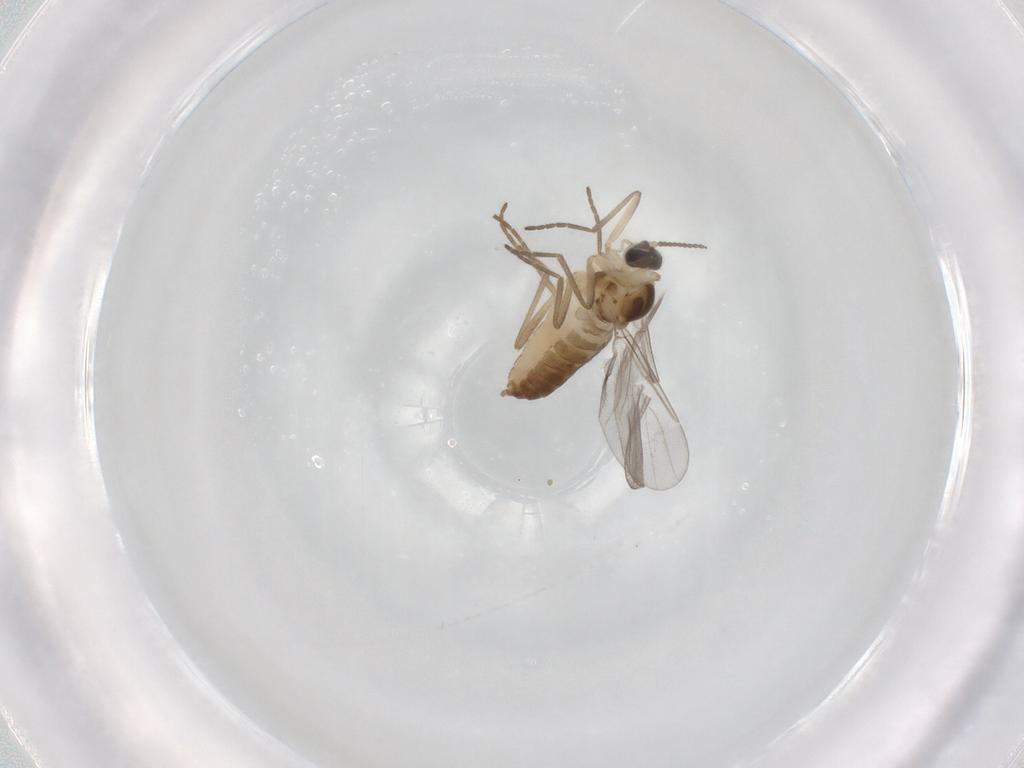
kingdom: Animalia
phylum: Arthropoda
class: Insecta
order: Diptera
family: Cecidomyiidae
